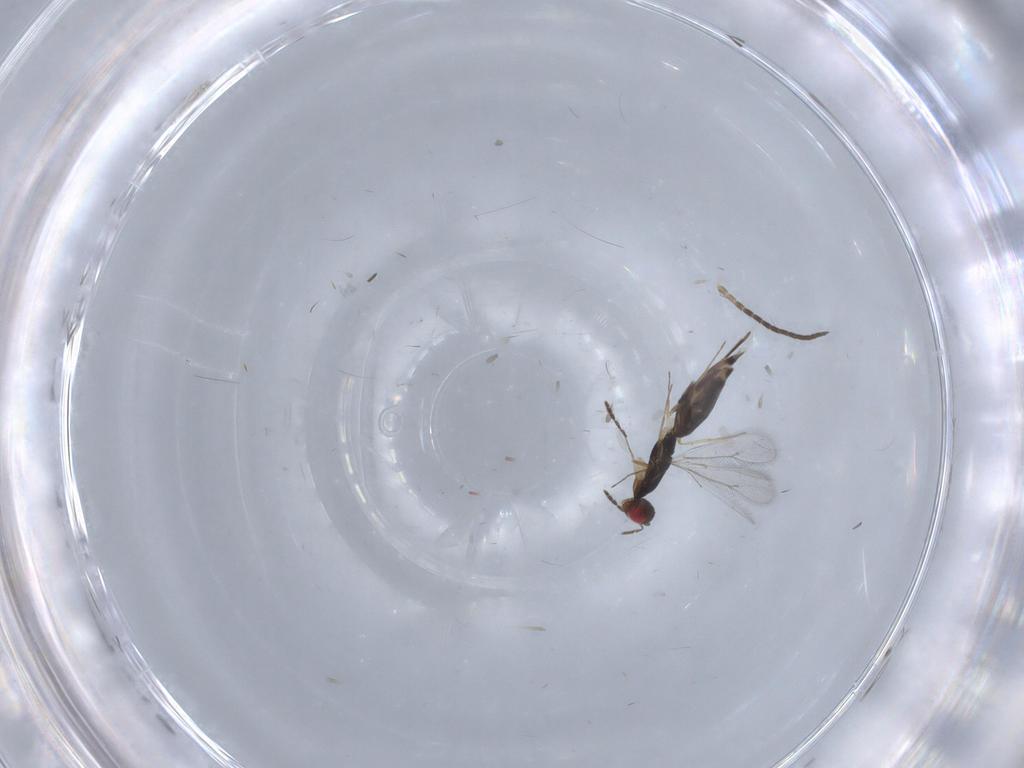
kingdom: Animalia
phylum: Arthropoda
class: Insecta
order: Hymenoptera
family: Eulophidae
